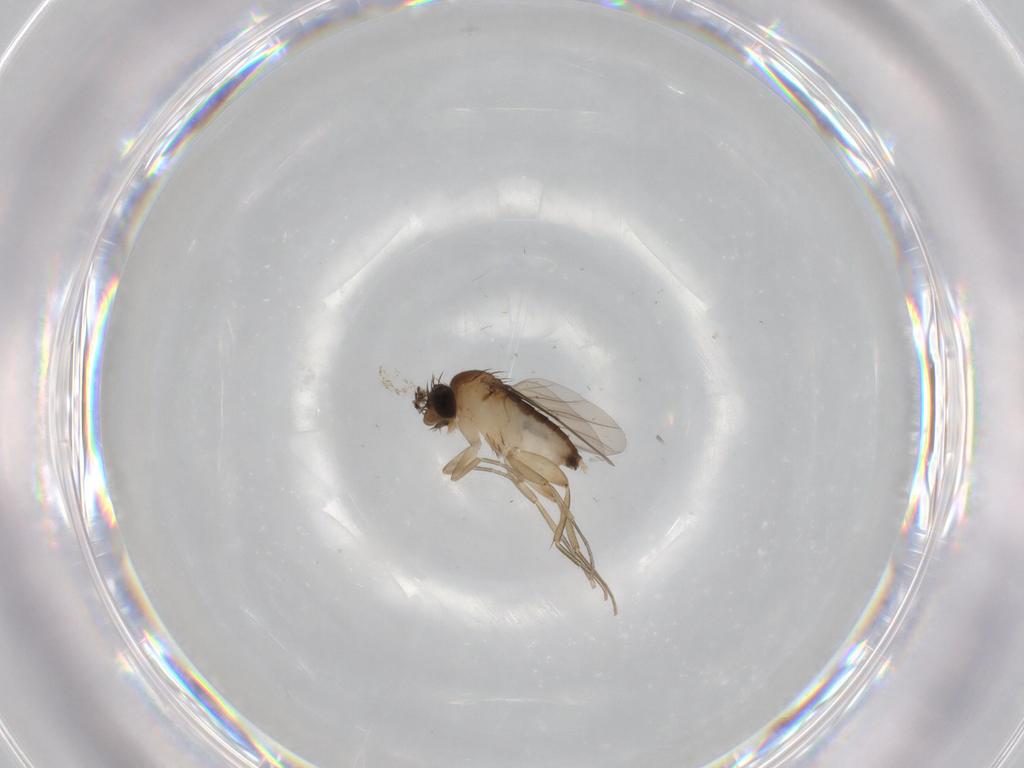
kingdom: Animalia
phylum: Arthropoda
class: Insecta
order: Diptera
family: Phoridae
